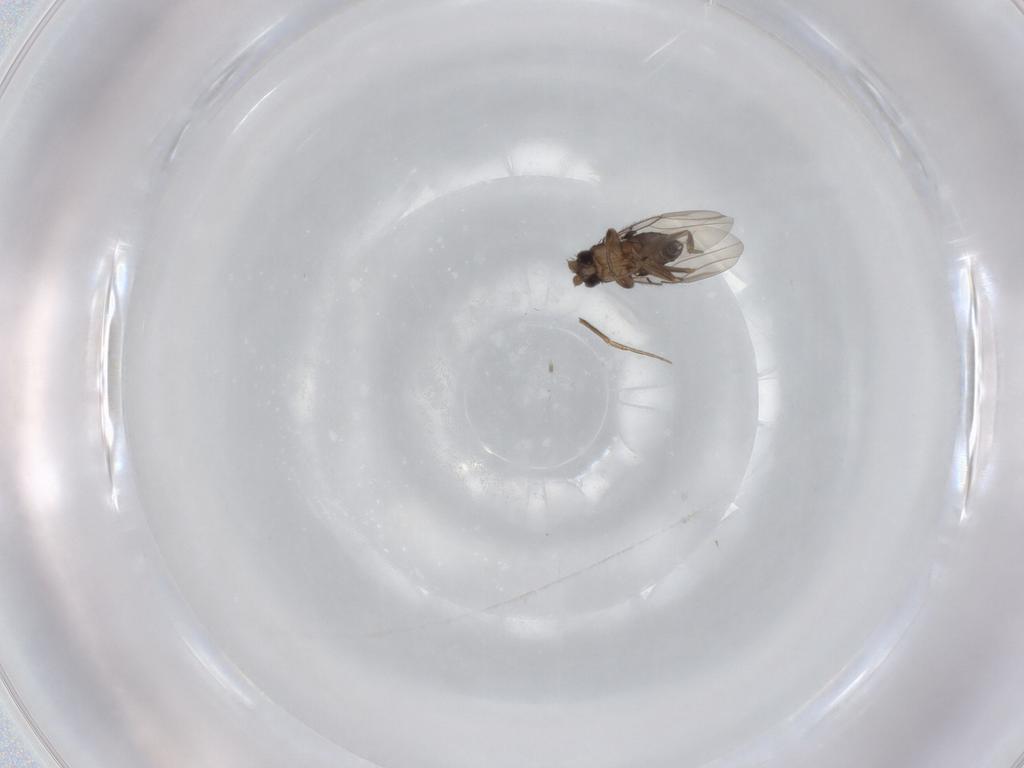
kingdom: Animalia
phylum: Arthropoda
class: Insecta
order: Diptera
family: Phoridae
